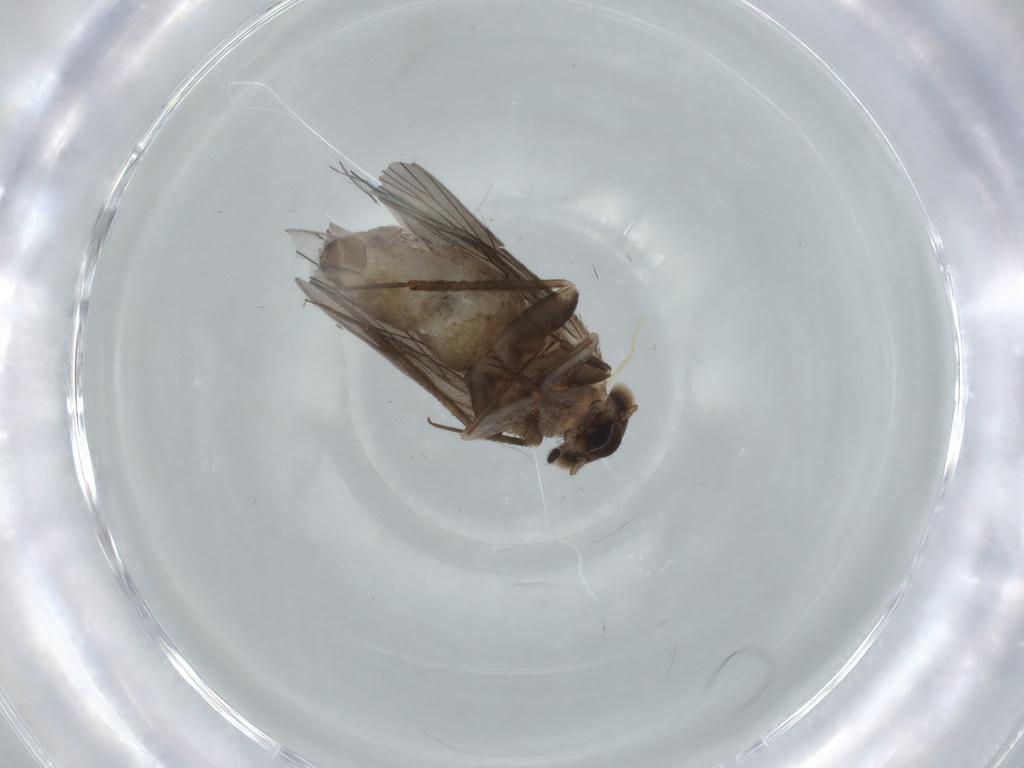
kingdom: Animalia
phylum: Arthropoda
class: Insecta
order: Psocodea
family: Lepidopsocidae
